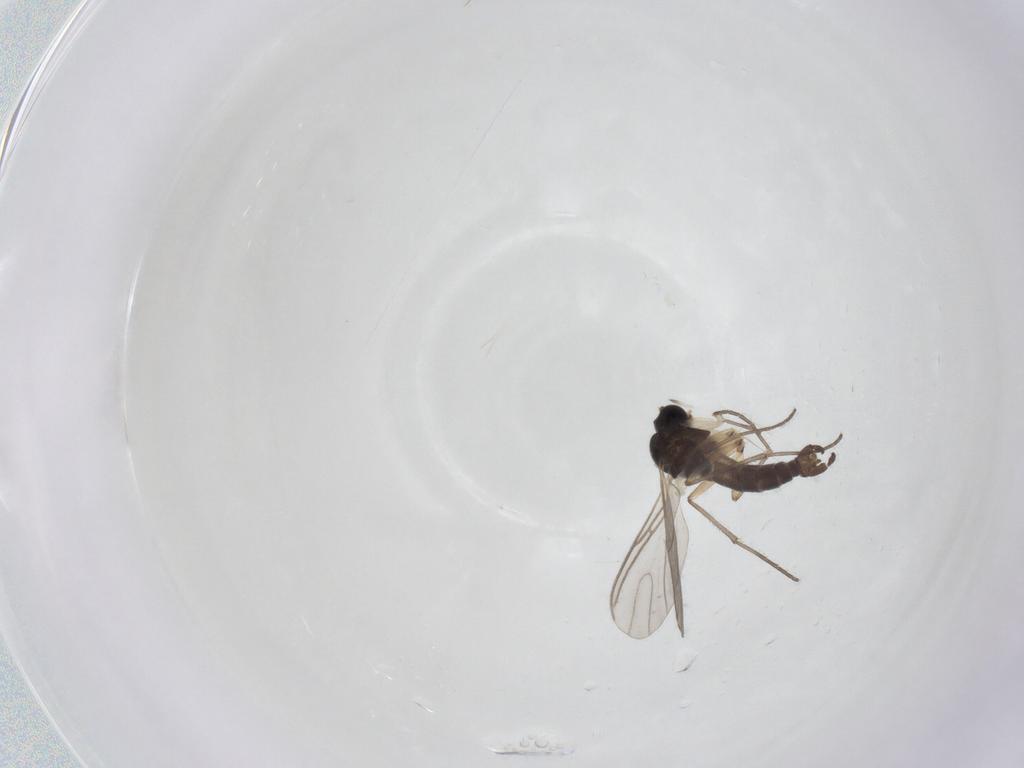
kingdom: Animalia
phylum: Arthropoda
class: Insecta
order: Diptera
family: Sciaridae
